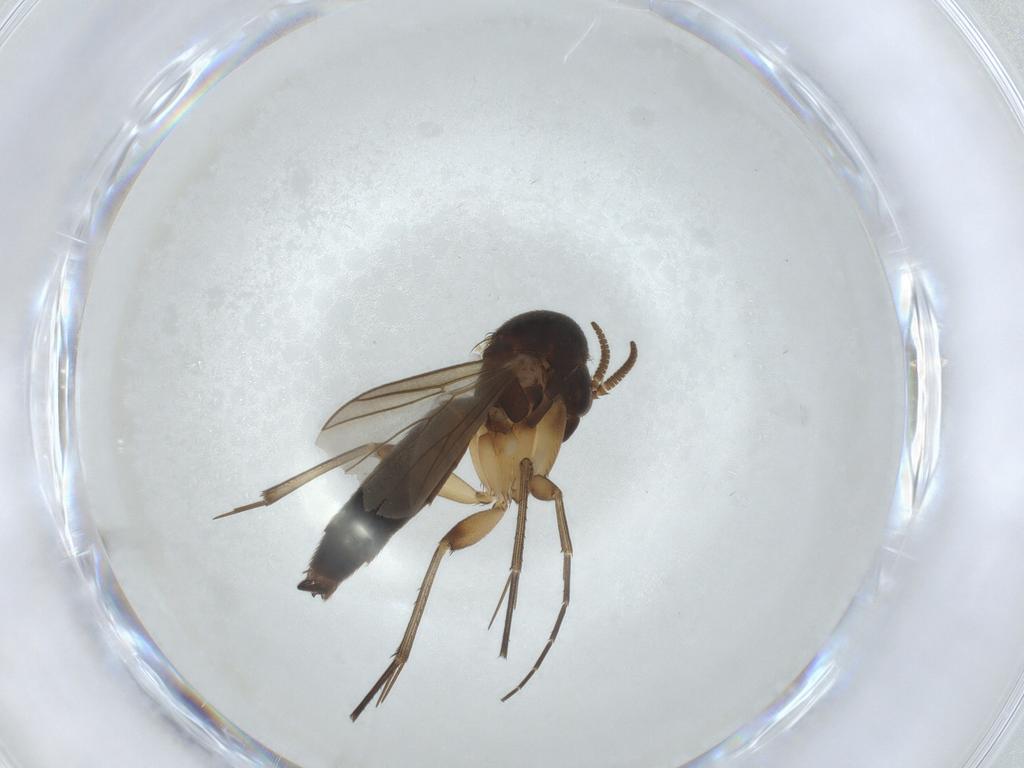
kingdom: Animalia
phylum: Arthropoda
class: Insecta
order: Diptera
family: Mycetophilidae
